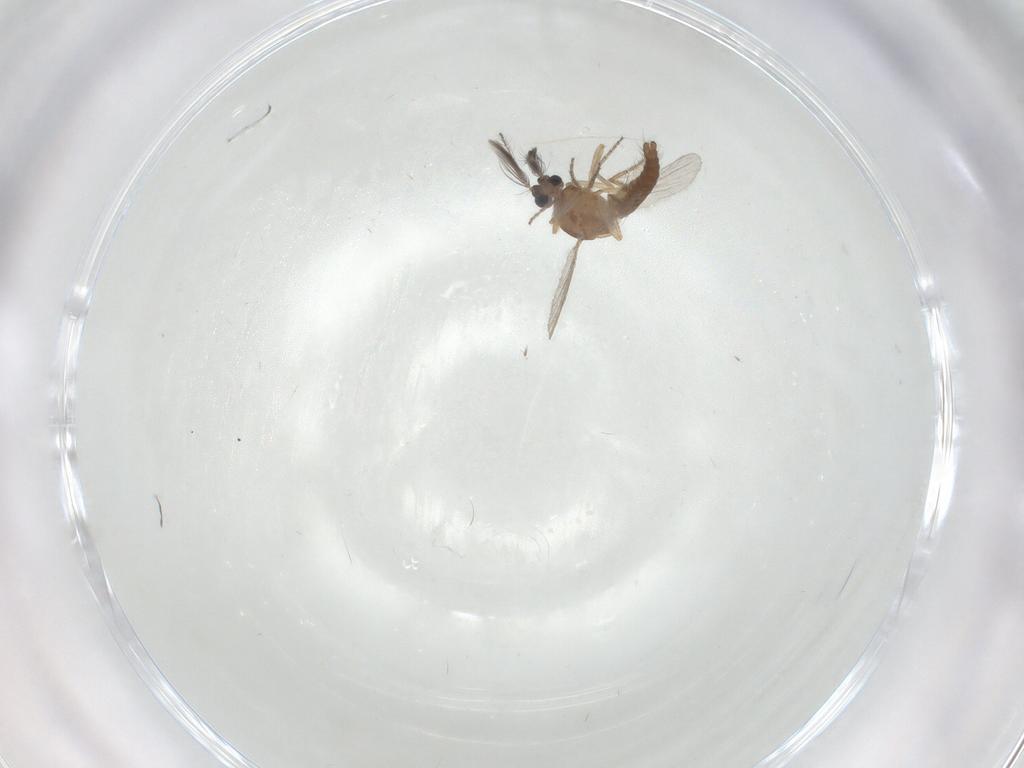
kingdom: Animalia
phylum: Arthropoda
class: Insecta
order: Diptera
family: Ceratopogonidae
